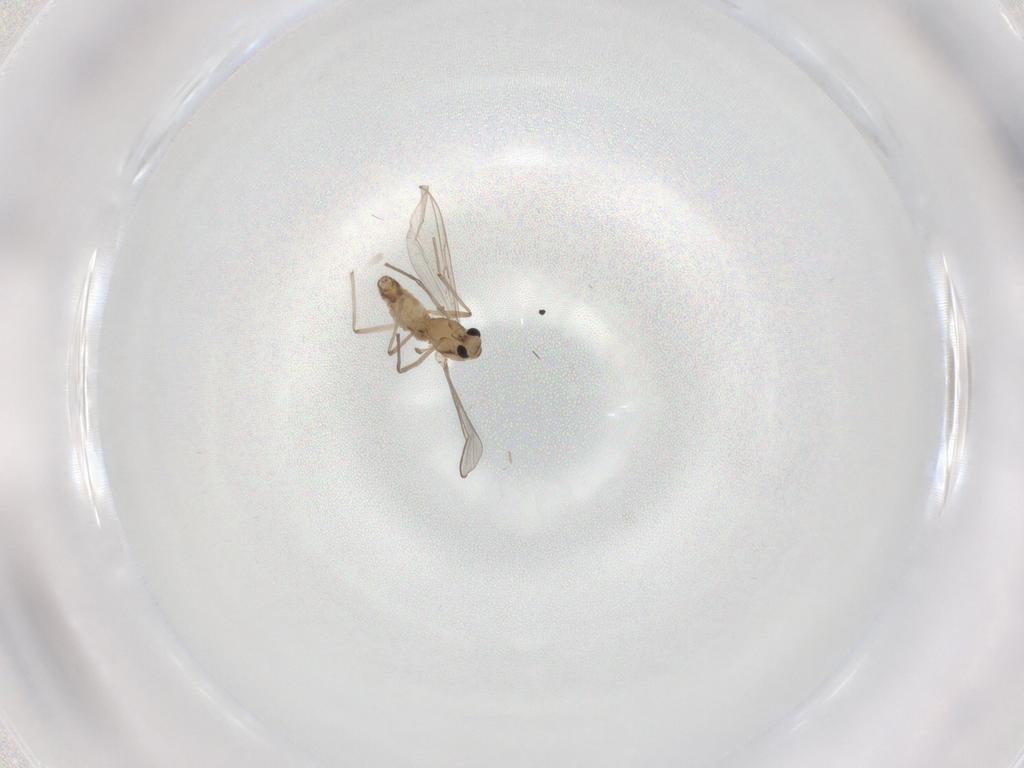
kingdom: Animalia
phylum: Arthropoda
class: Insecta
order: Diptera
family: Chironomidae
